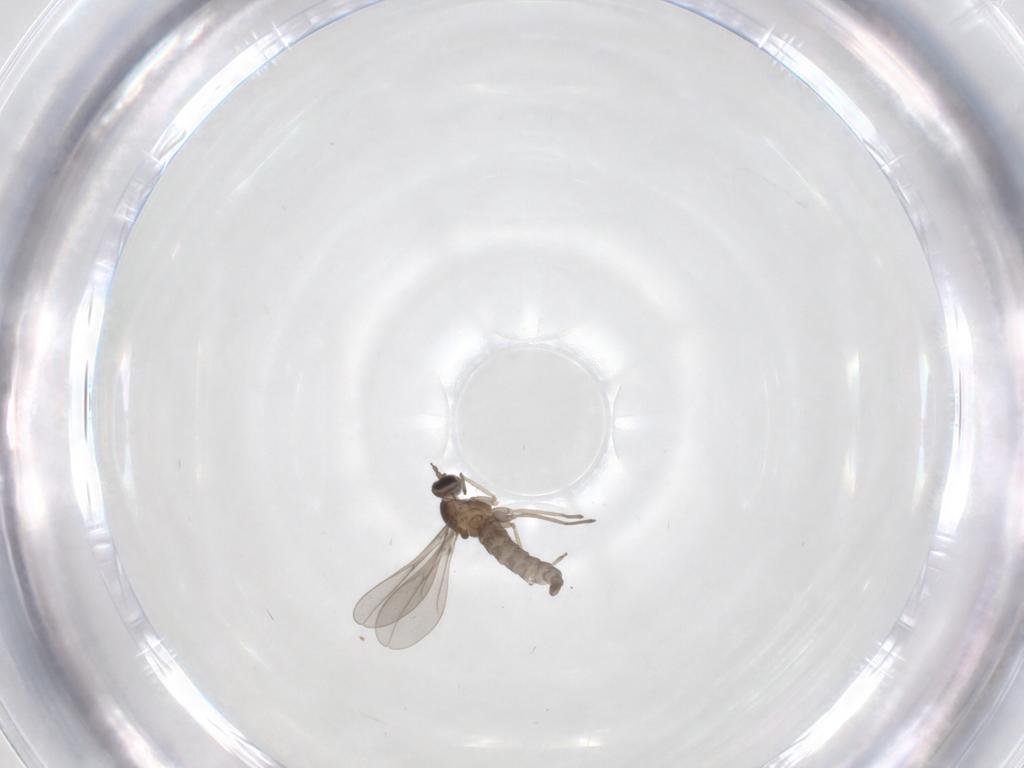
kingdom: Animalia
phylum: Arthropoda
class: Insecta
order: Diptera
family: Cecidomyiidae
